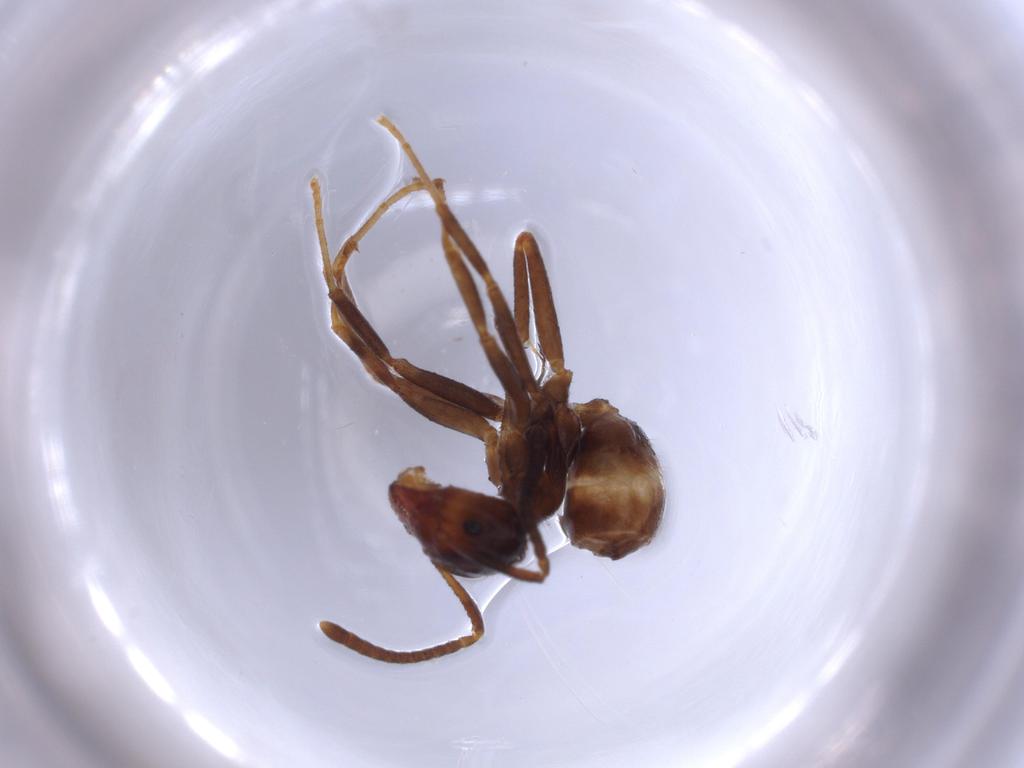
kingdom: Animalia
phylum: Arthropoda
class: Insecta
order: Hymenoptera
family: Formicidae
